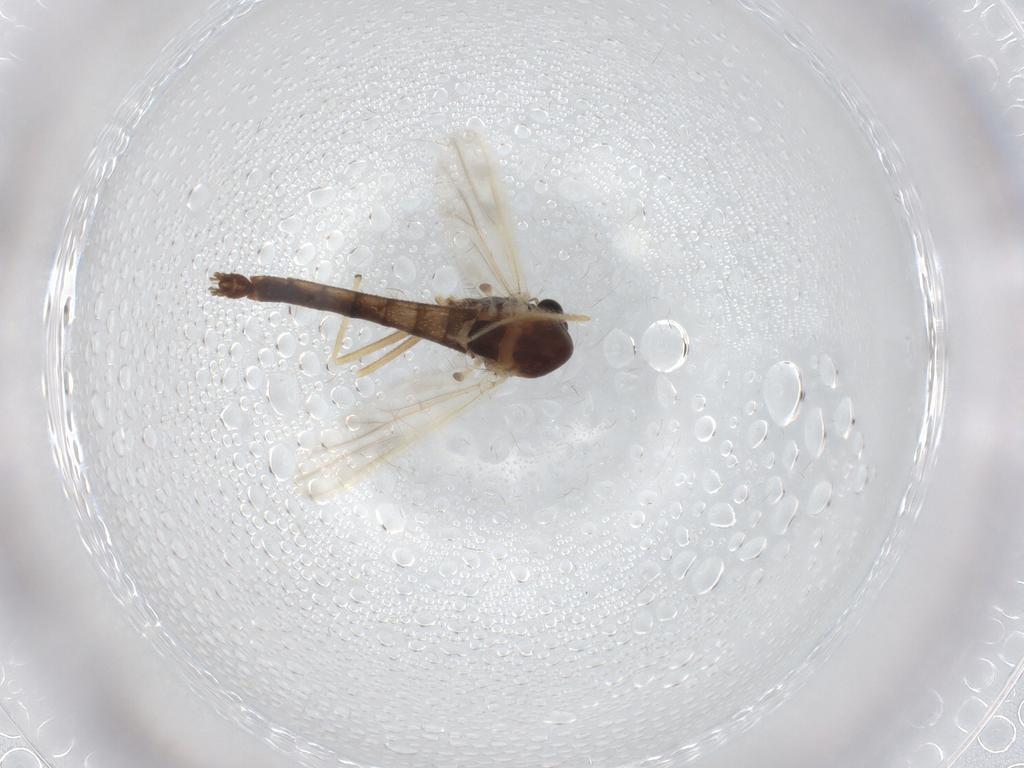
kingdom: Animalia
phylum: Arthropoda
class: Insecta
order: Diptera
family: Chironomidae
